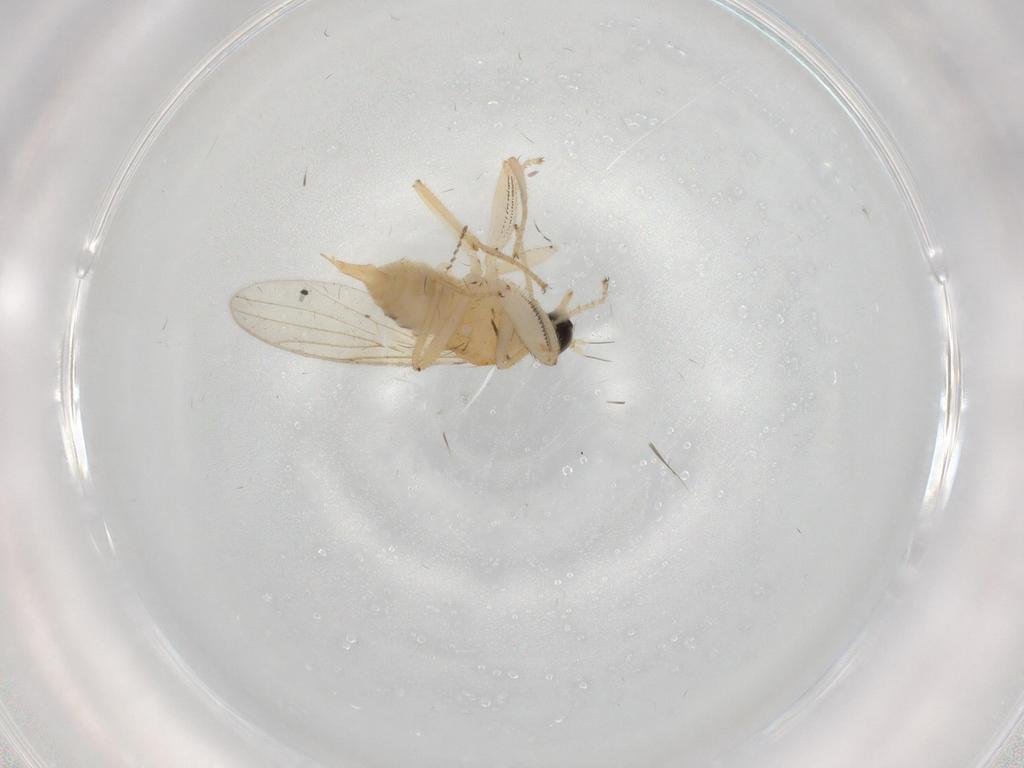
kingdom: Animalia
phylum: Arthropoda
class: Insecta
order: Diptera
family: Cecidomyiidae
